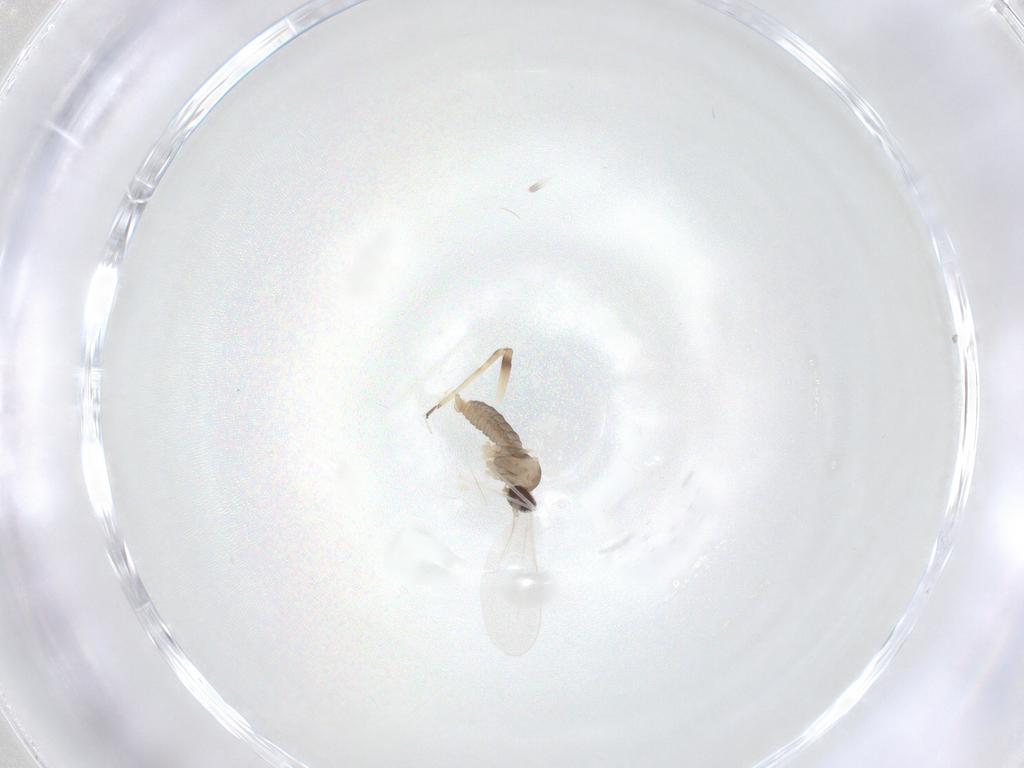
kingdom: Animalia
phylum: Arthropoda
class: Insecta
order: Diptera
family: Cecidomyiidae
